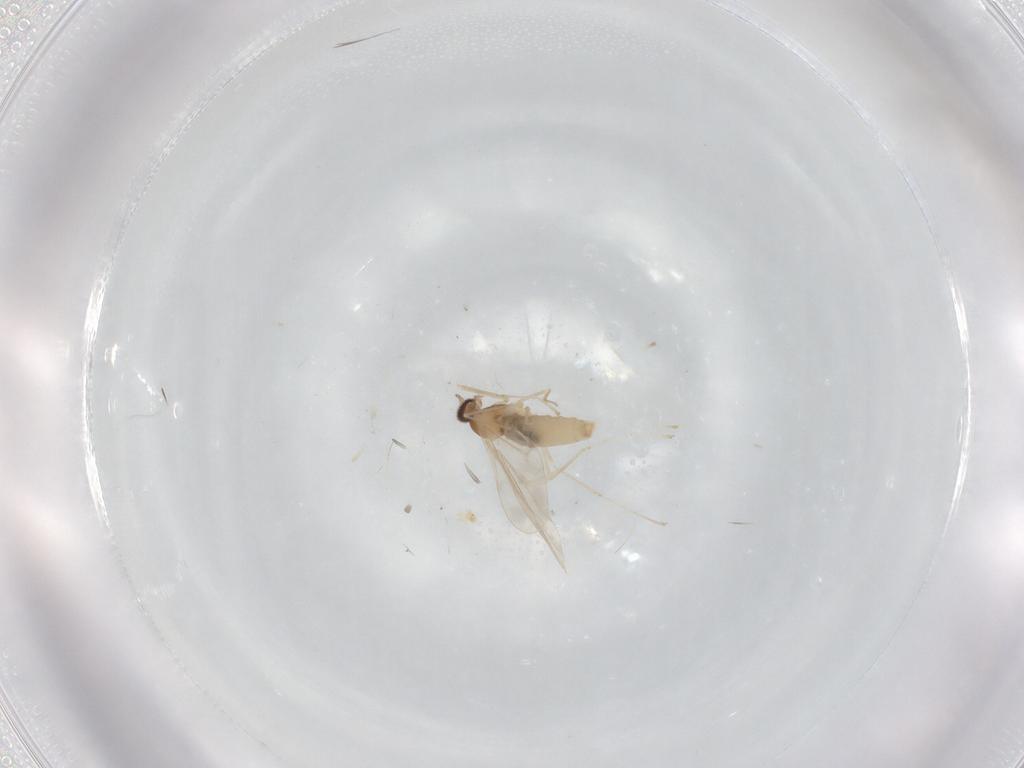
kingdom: Animalia
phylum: Arthropoda
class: Insecta
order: Diptera
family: Cecidomyiidae
